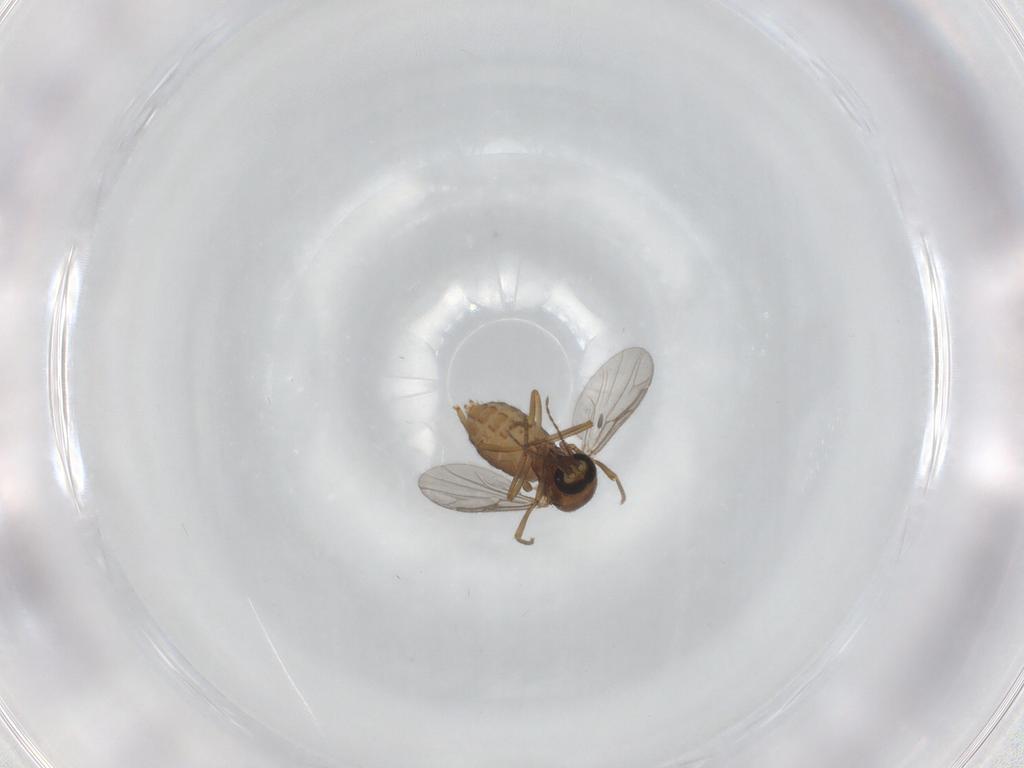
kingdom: Animalia
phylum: Arthropoda
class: Insecta
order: Diptera
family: Ceratopogonidae
